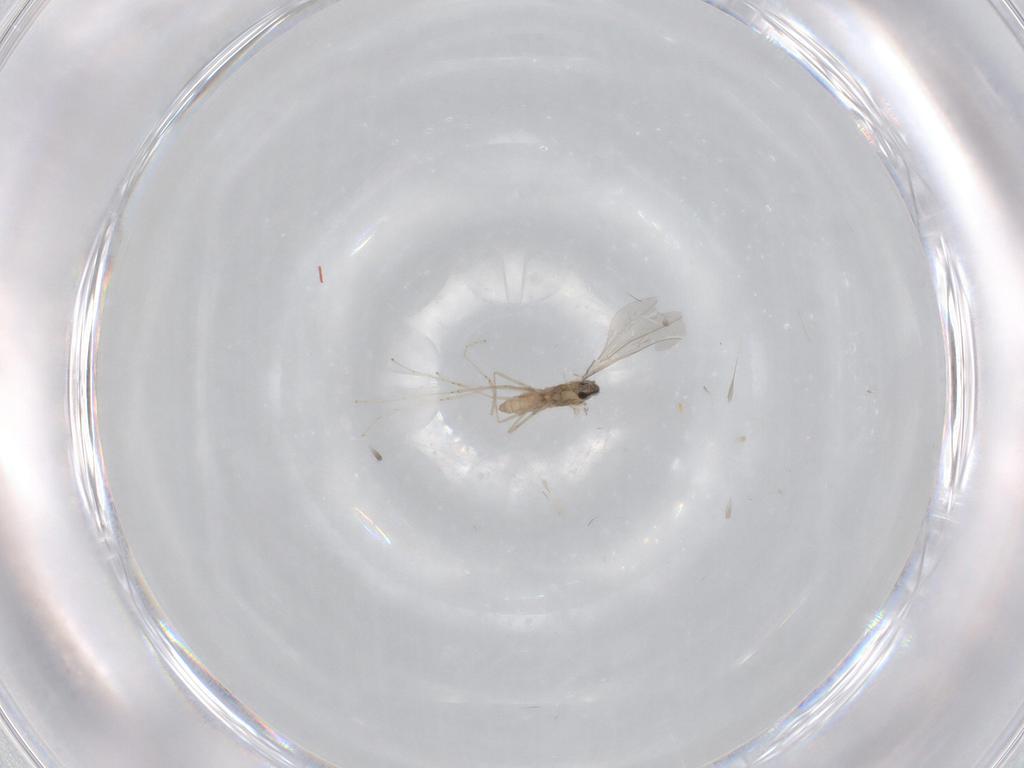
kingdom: Animalia
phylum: Arthropoda
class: Insecta
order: Diptera
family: Cecidomyiidae
